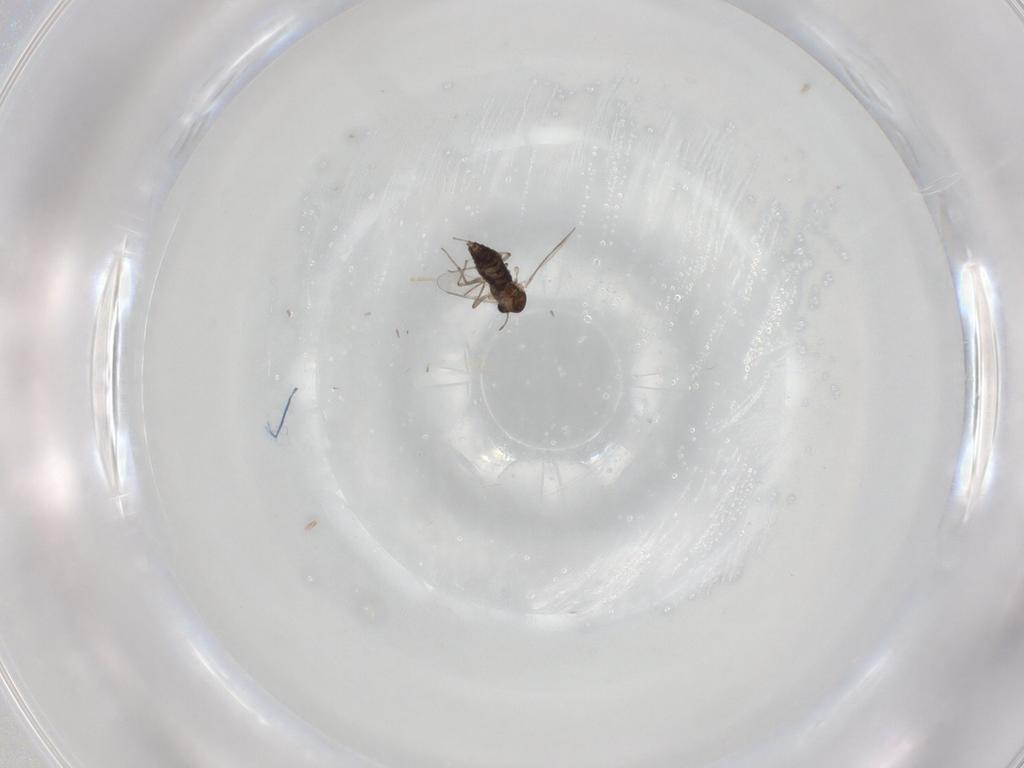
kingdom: Animalia
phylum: Arthropoda
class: Insecta
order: Diptera
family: Chironomidae
